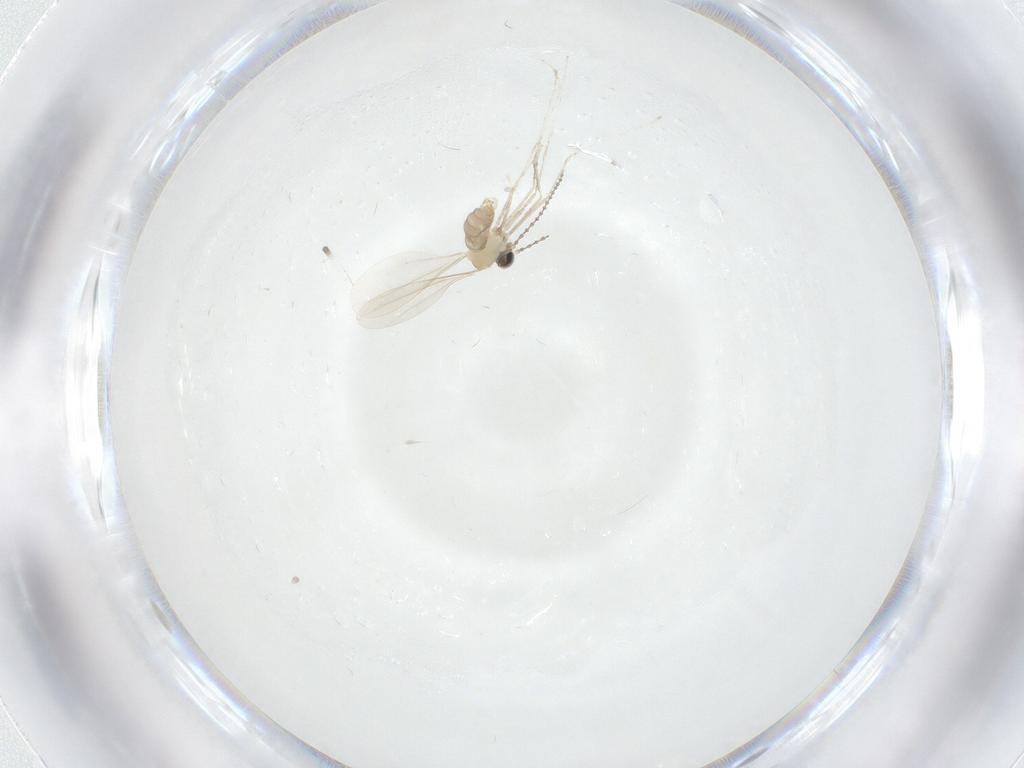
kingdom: Animalia
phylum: Arthropoda
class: Insecta
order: Diptera
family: Cecidomyiidae
